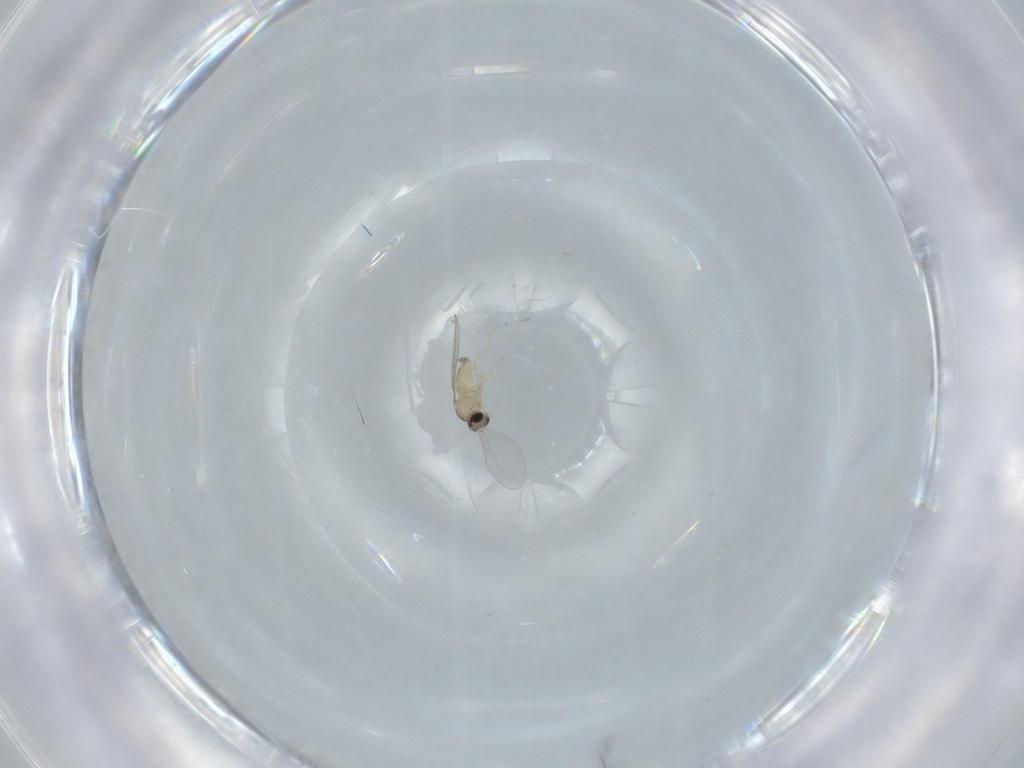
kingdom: Animalia
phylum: Arthropoda
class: Insecta
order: Diptera
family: Cecidomyiidae
